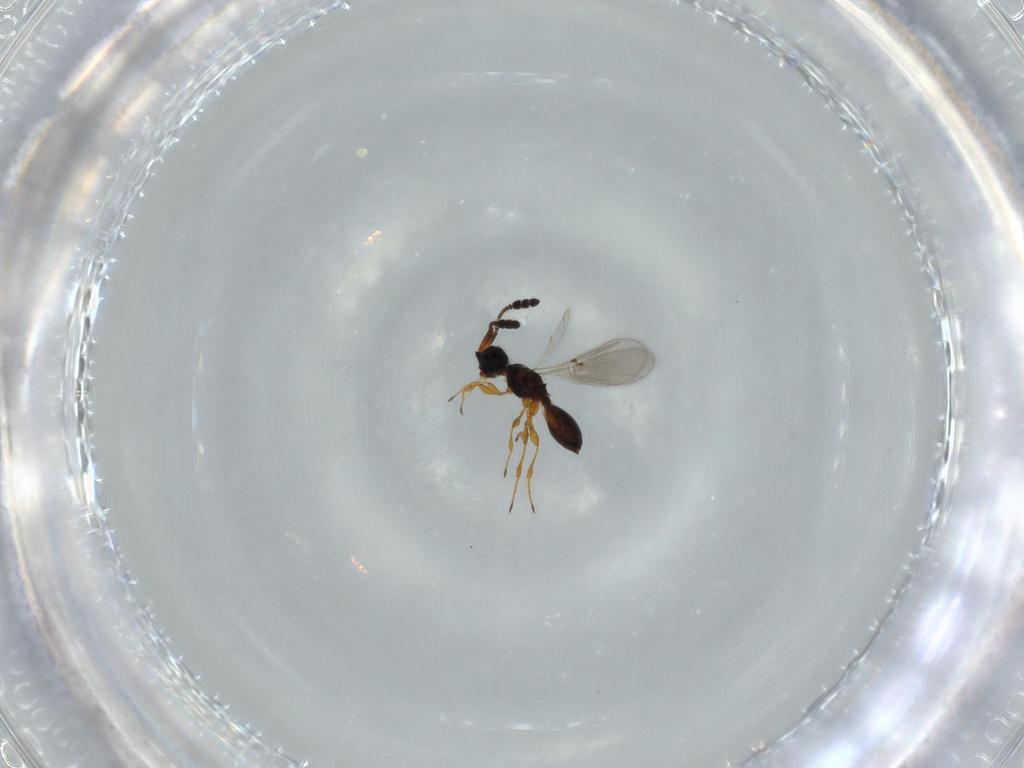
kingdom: Animalia
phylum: Arthropoda
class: Insecta
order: Hymenoptera
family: Diapriidae
